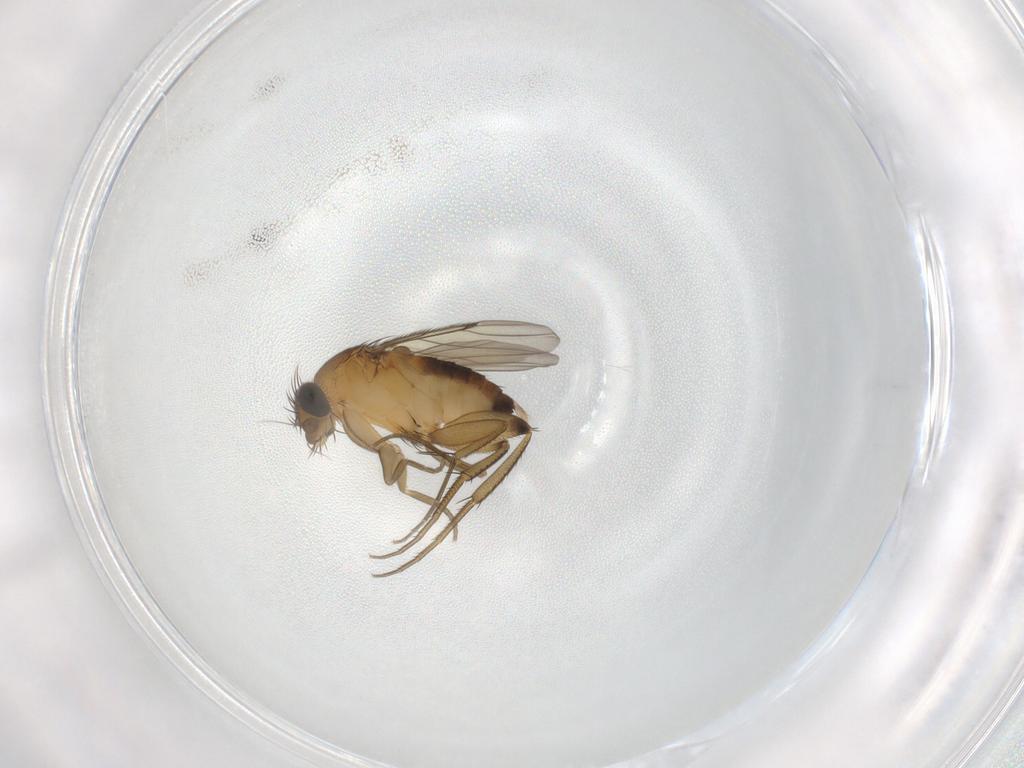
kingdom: Animalia
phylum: Arthropoda
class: Insecta
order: Diptera
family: Phoridae
